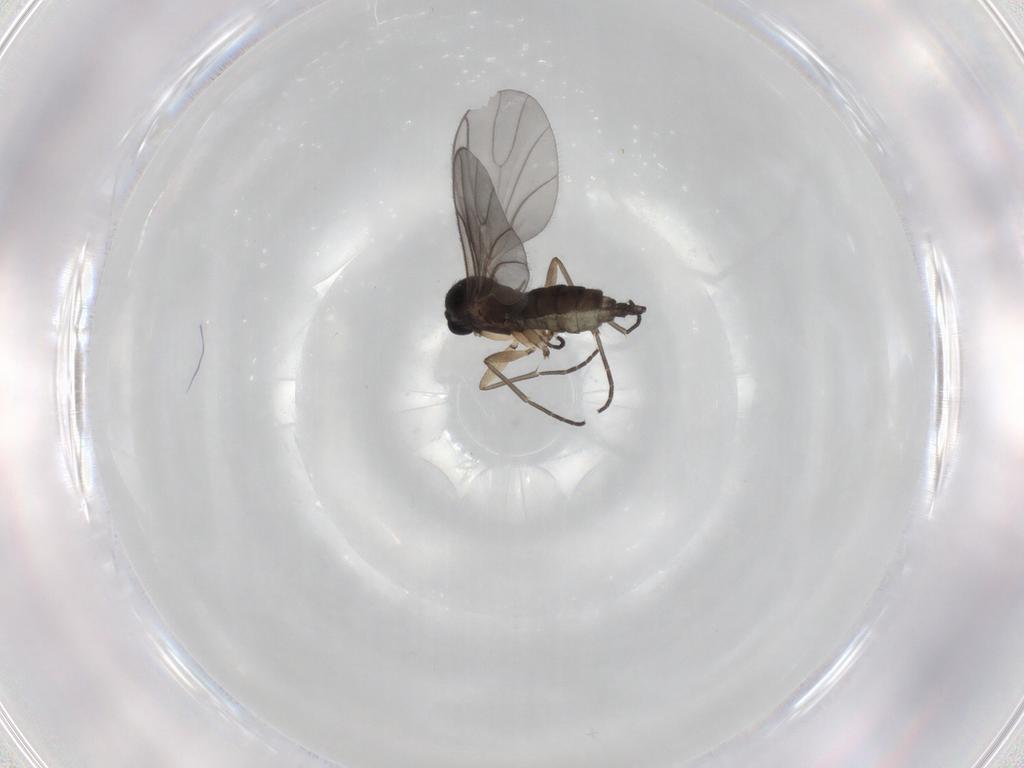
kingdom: Animalia
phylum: Arthropoda
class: Insecta
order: Diptera
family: Limoniidae
